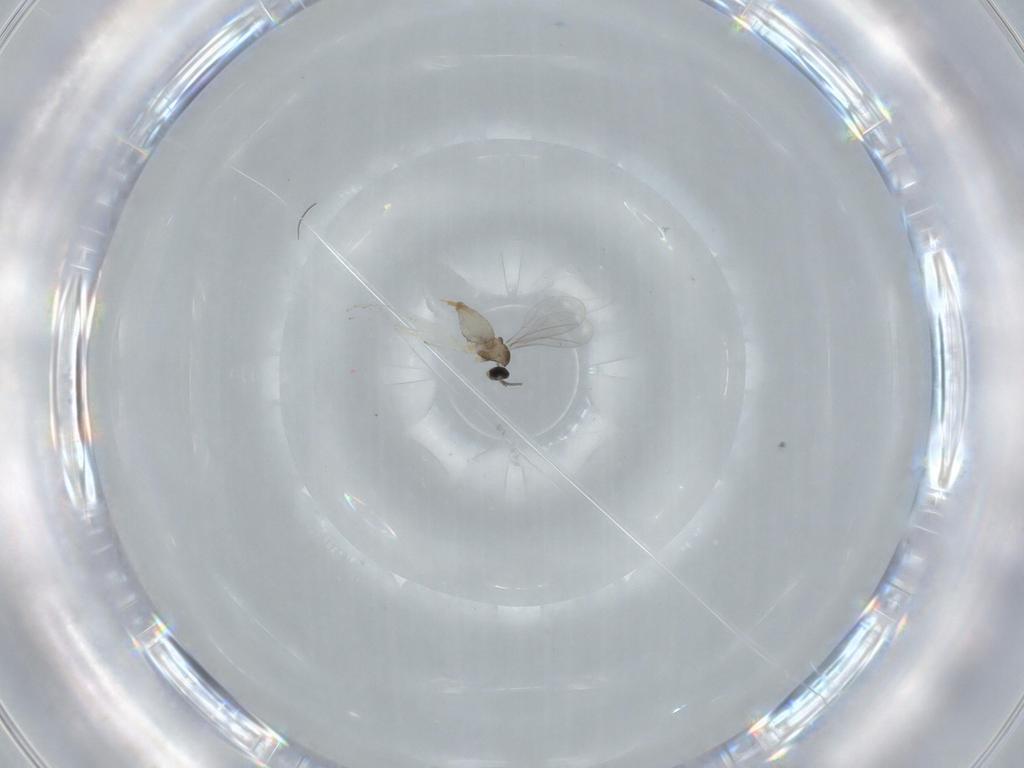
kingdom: Animalia
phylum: Arthropoda
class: Insecta
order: Diptera
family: Cecidomyiidae
